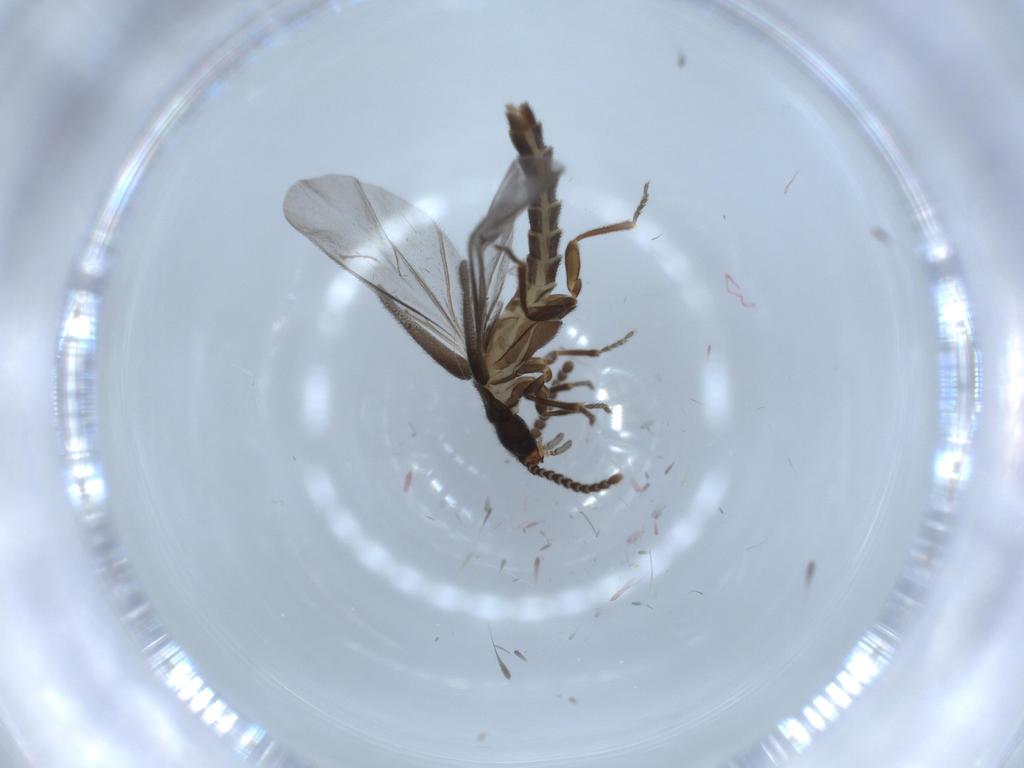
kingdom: Animalia
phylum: Arthropoda
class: Insecta
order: Coleoptera
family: Omethidae
